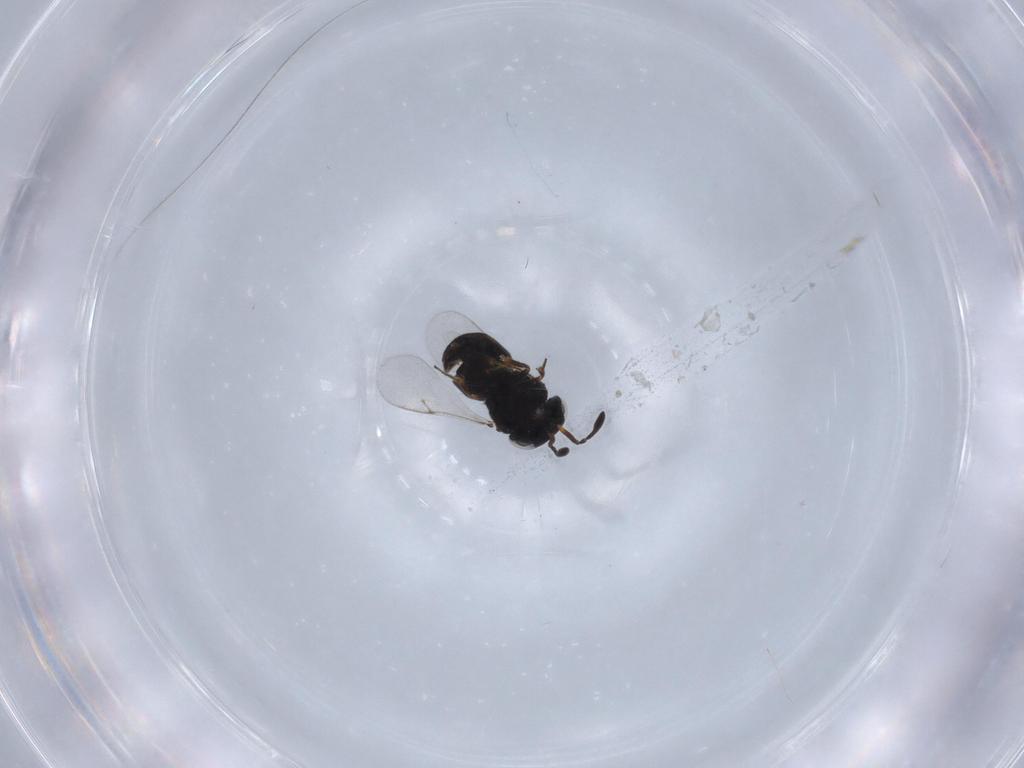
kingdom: Animalia
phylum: Arthropoda
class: Insecta
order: Hymenoptera
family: Scelionidae
